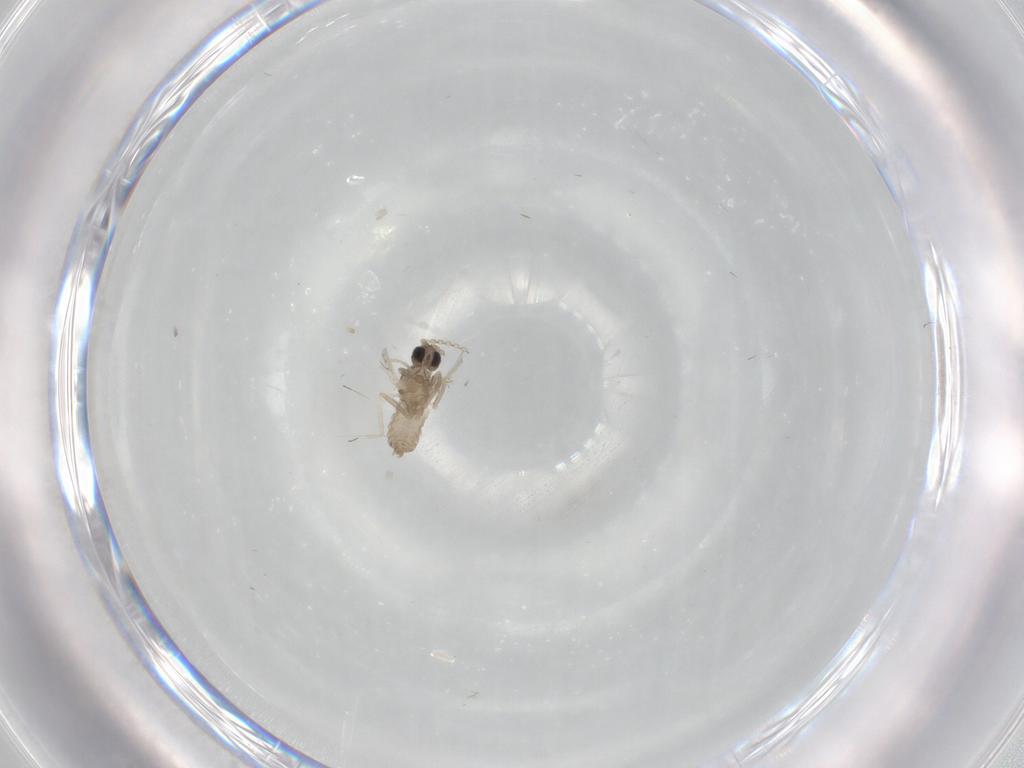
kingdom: Animalia
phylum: Arthropoda
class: Insecta
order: Diptera
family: Cecidomyiidae
